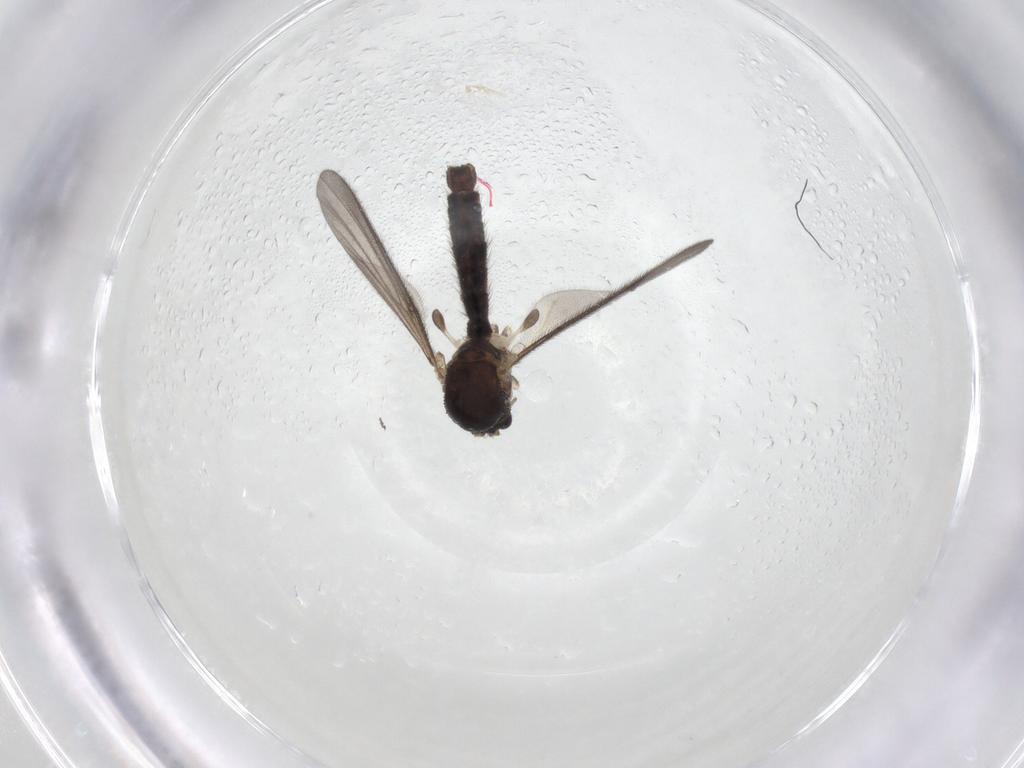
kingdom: Animalia
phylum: Arthropoda
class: Insecta
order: Diptera
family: Mycetophilidae
